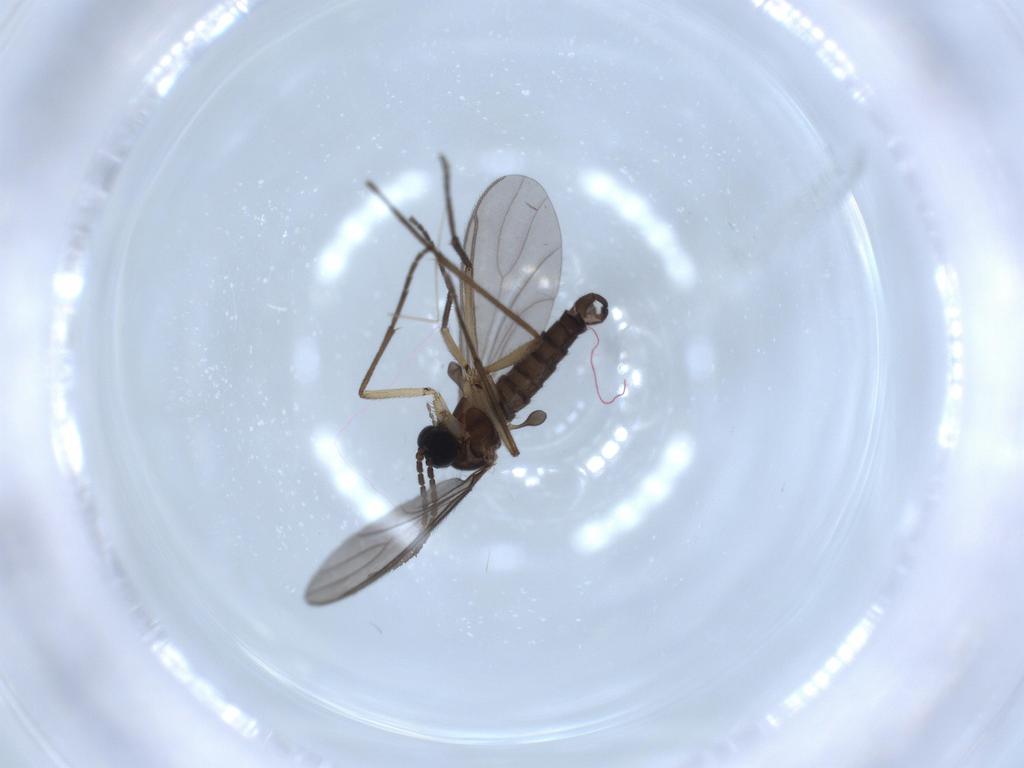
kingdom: Animalia
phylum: Arthropoda
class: Insecta
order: Diptera
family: Sciaridae
